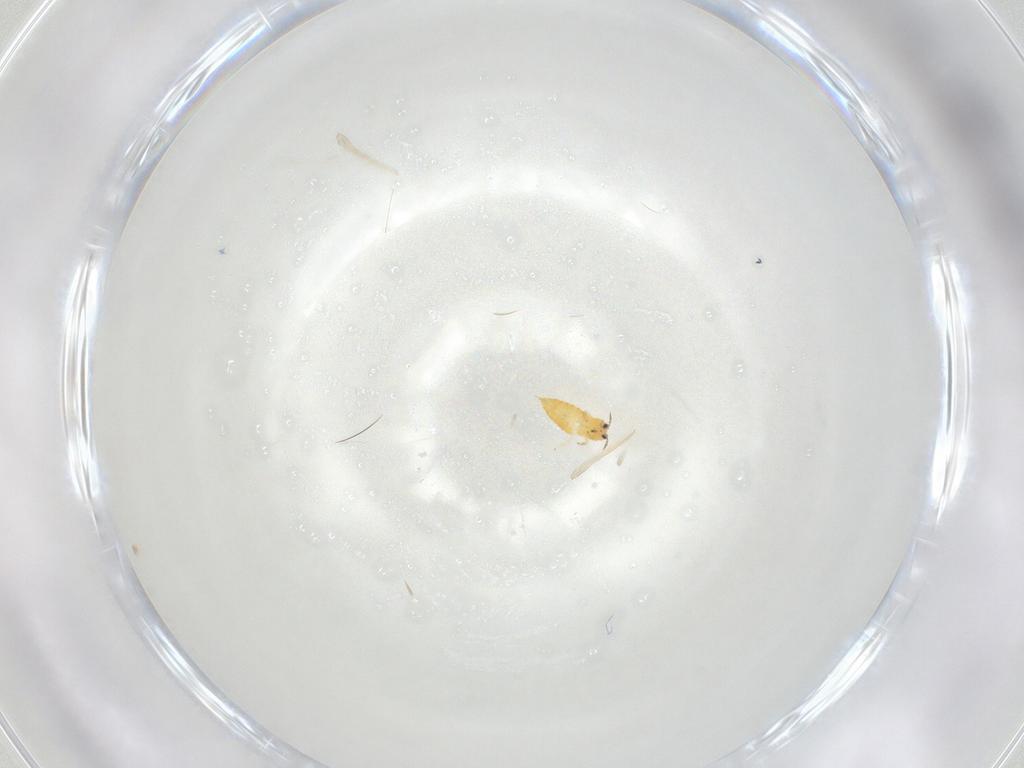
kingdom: Animalia
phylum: Arthropoda
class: Insecta
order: Thysanoptera
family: Thripidae
